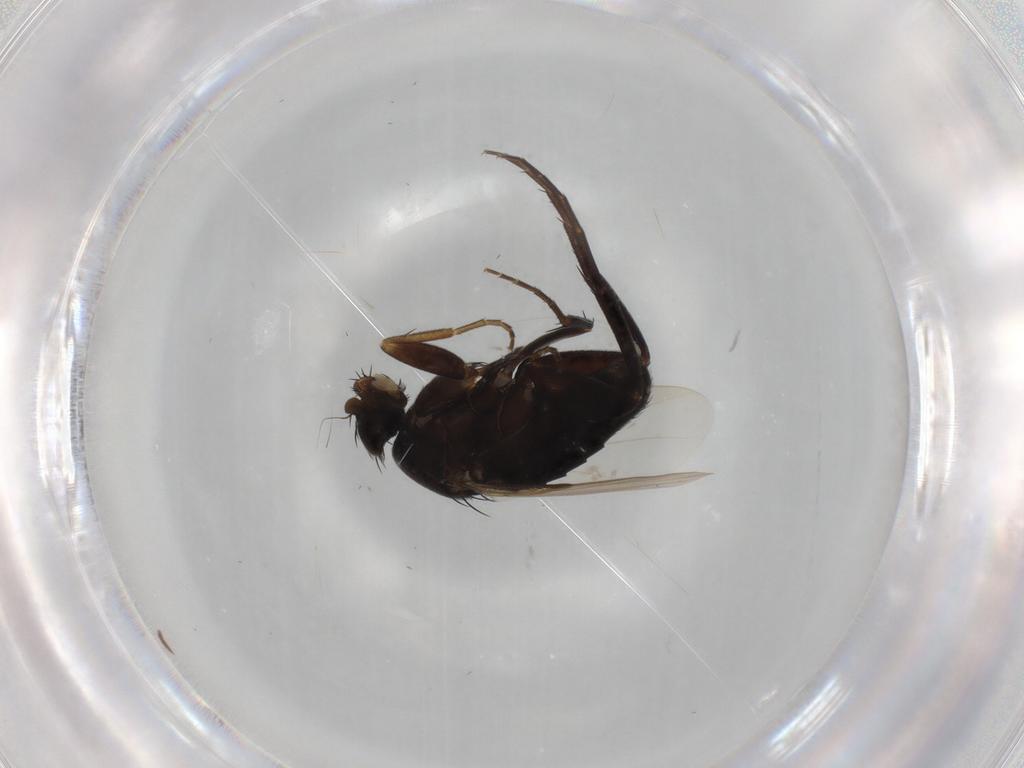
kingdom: Animalia
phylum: Arthropoda
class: Insecta
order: Diptera
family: Phoridae
